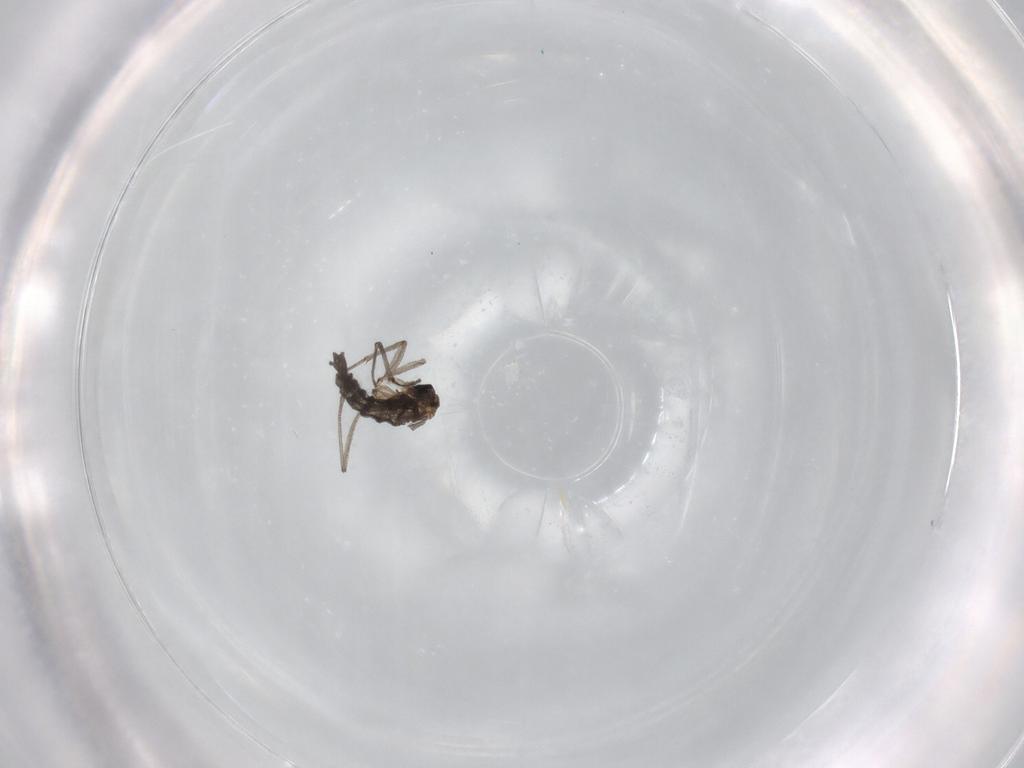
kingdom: Animalia
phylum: Arthropoda
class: Insecta
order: Diptera
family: Sciaridae
